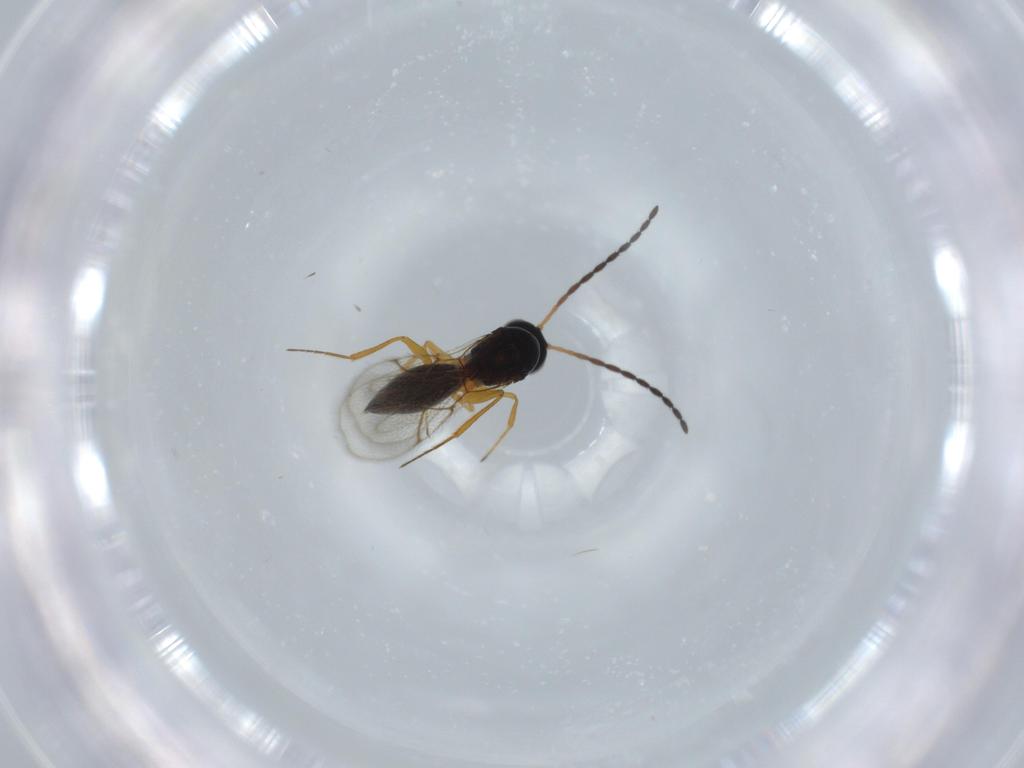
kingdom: Animalia
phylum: Arthropoda
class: Insecta
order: Hymenoptera
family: Figitidae
